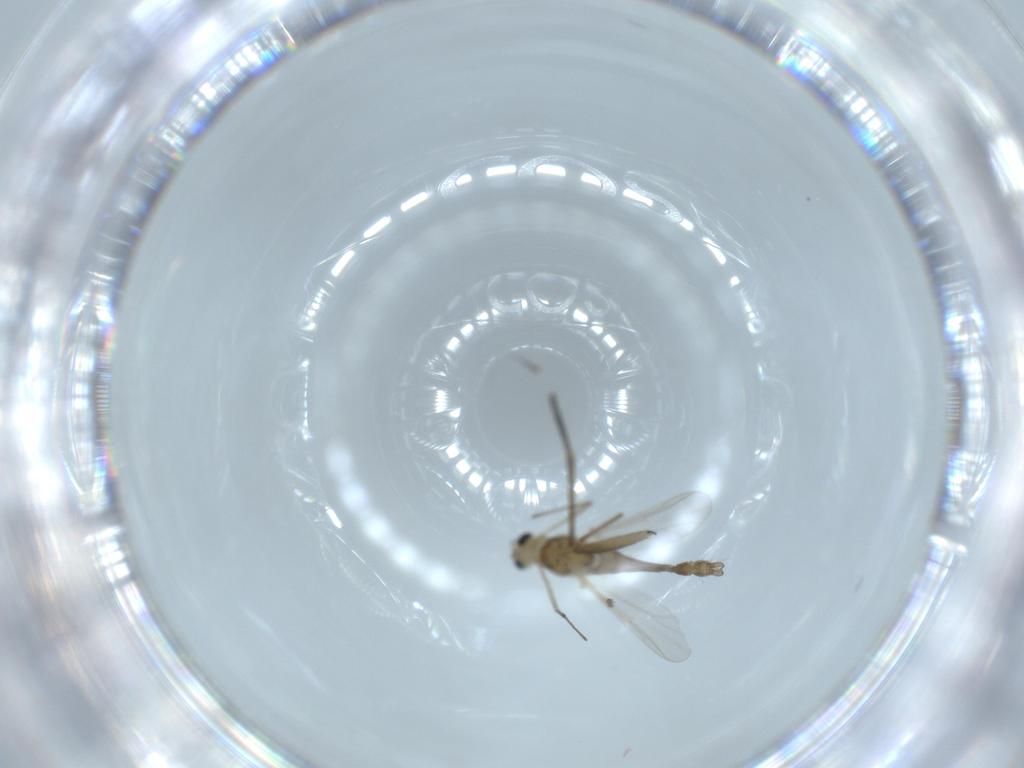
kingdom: Animalia
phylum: Arthropoda
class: Insecta
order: Diptera
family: Chironomidae
